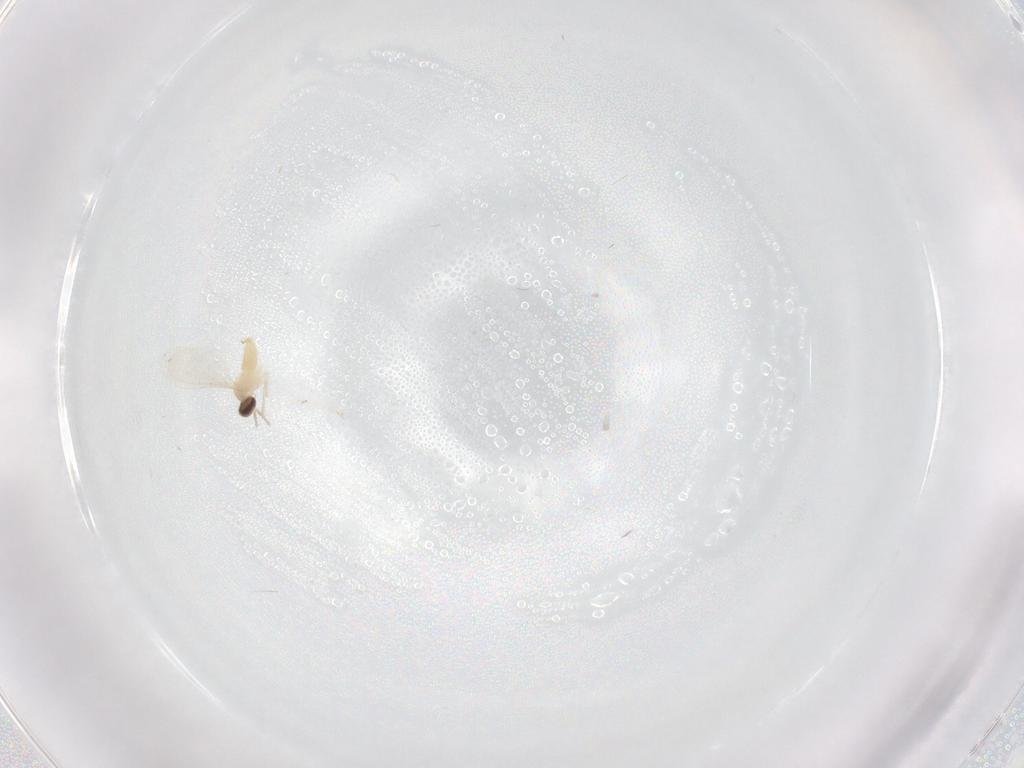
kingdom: Animalia
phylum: Arthropoda
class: Insecta
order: Diptera
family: Cecidomyiidae
